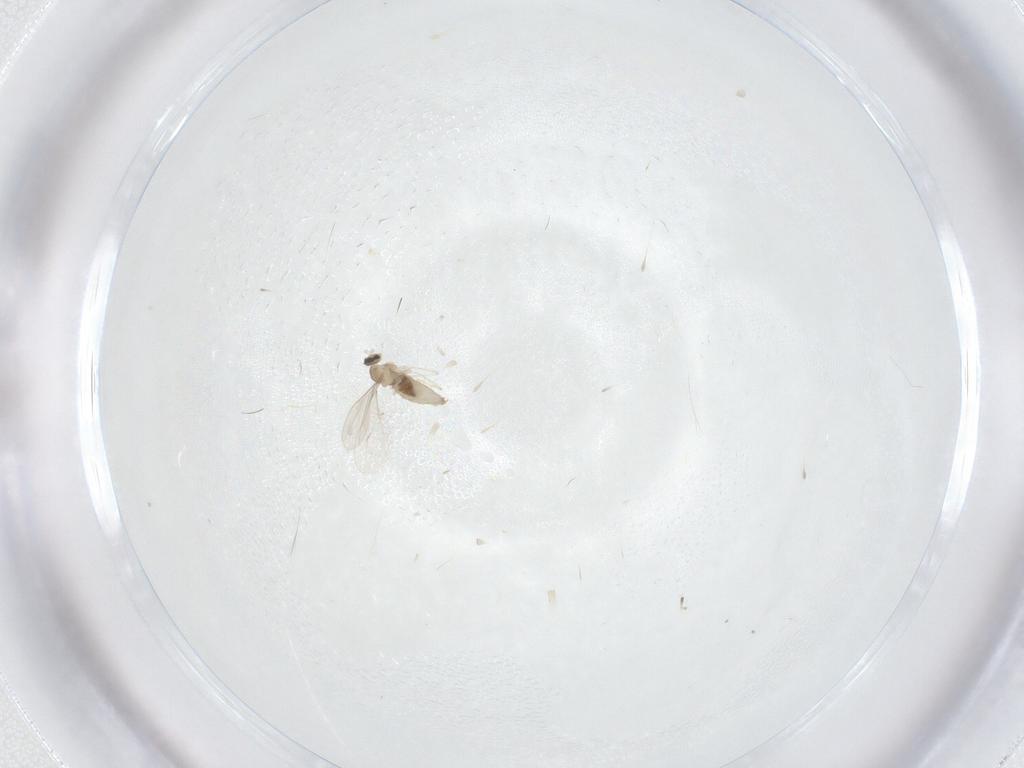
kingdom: Animalia
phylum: Arthropoda
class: Insecta
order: Diptera
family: Cecidomyiidae
